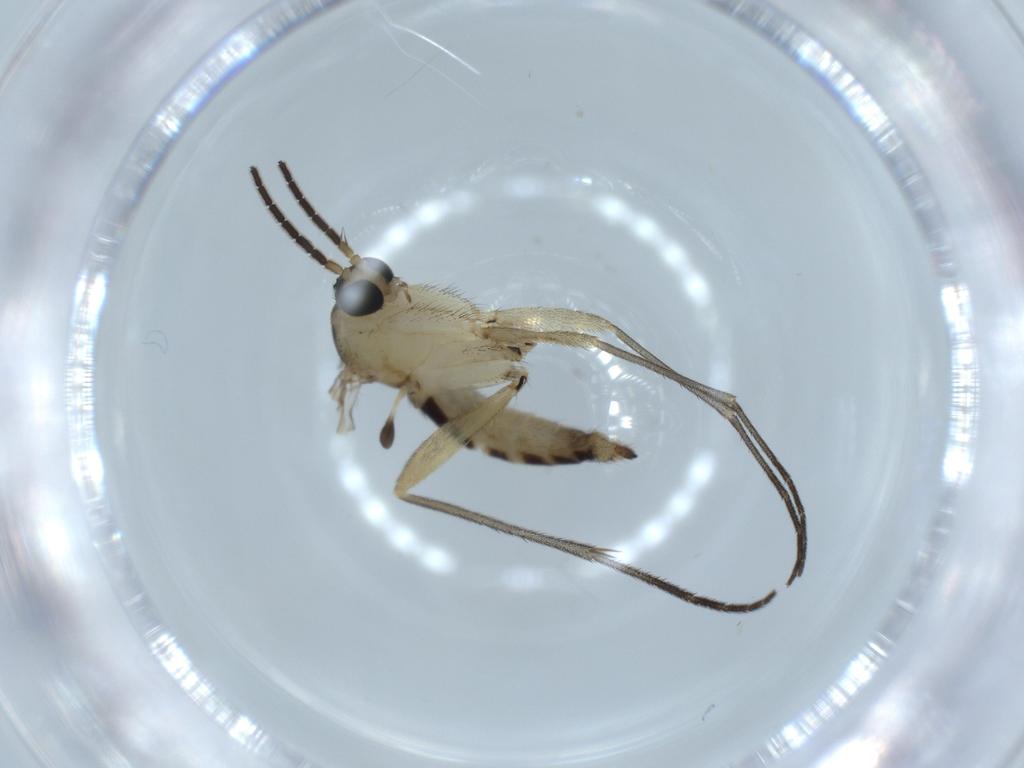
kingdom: Animalia
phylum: Arthropoda
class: Insecta
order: Diptera
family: Sciaridae
